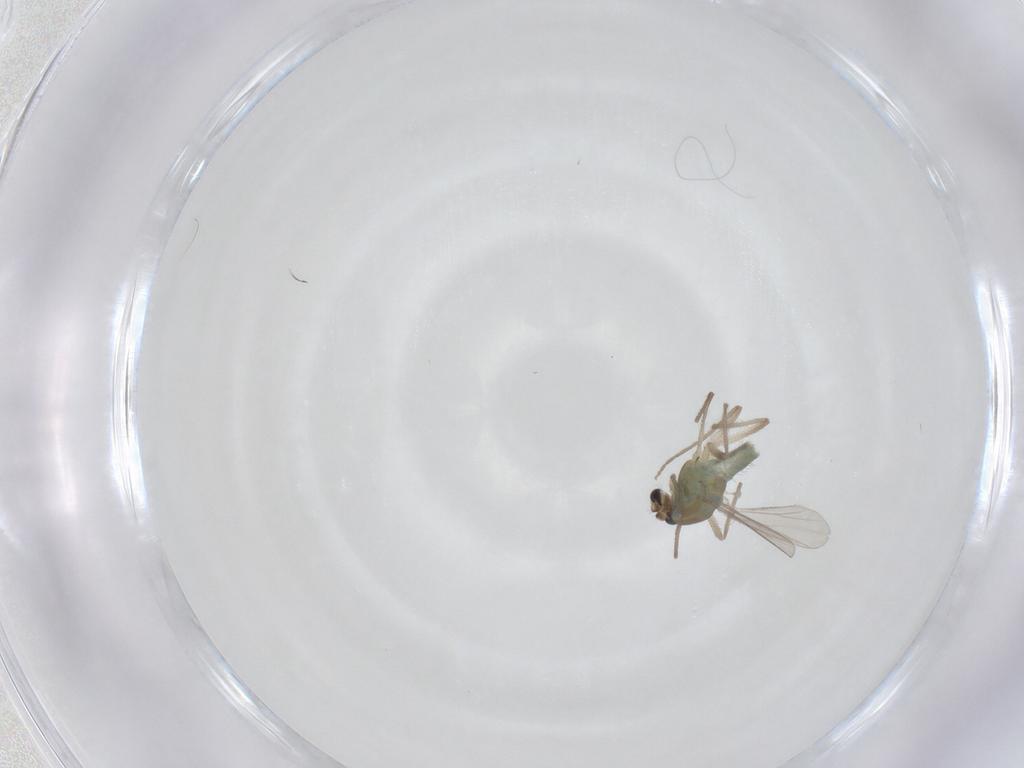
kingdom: Animalia
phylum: Arthropoda
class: Insecta
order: Diptera
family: Chironomidae
